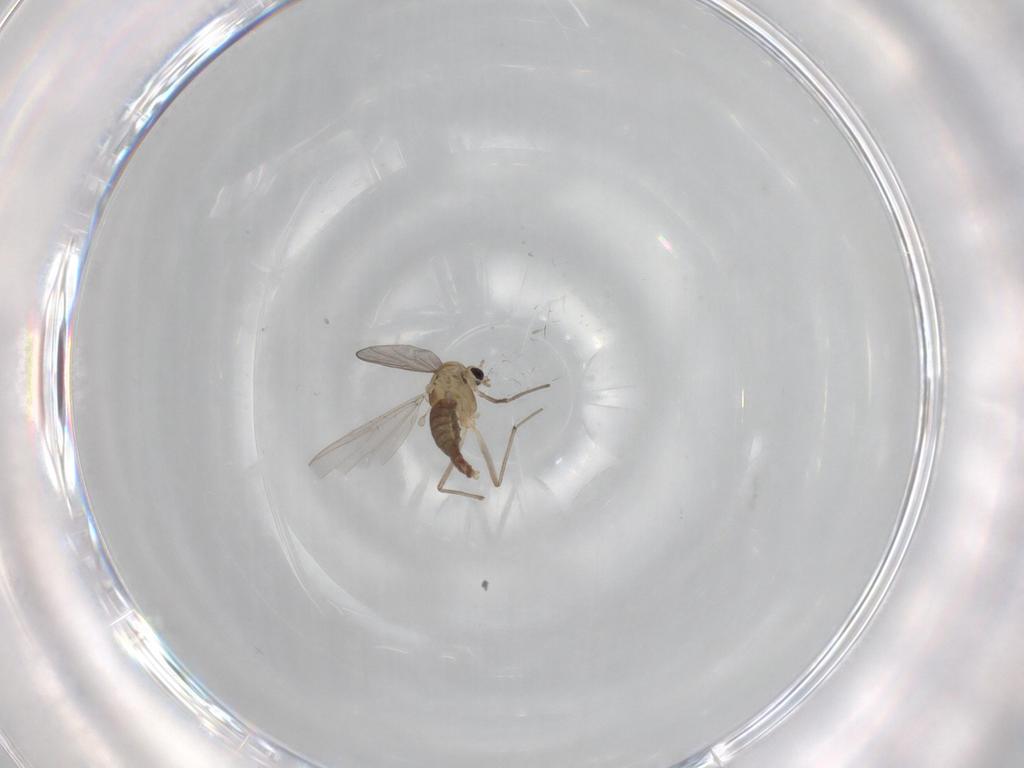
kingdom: Animalia
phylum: Arthropoda
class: Insecta
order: Diptera
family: Chironomidae
